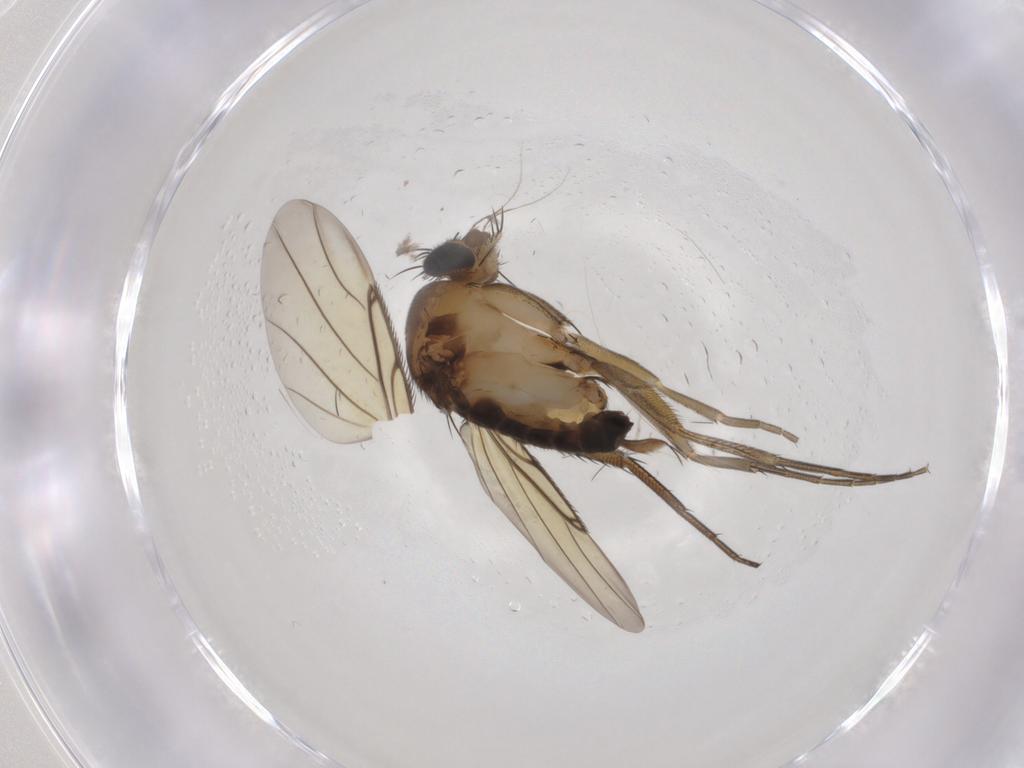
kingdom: Animalia
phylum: Arthropoda
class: Insecta
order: Diptera
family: Phoridae
